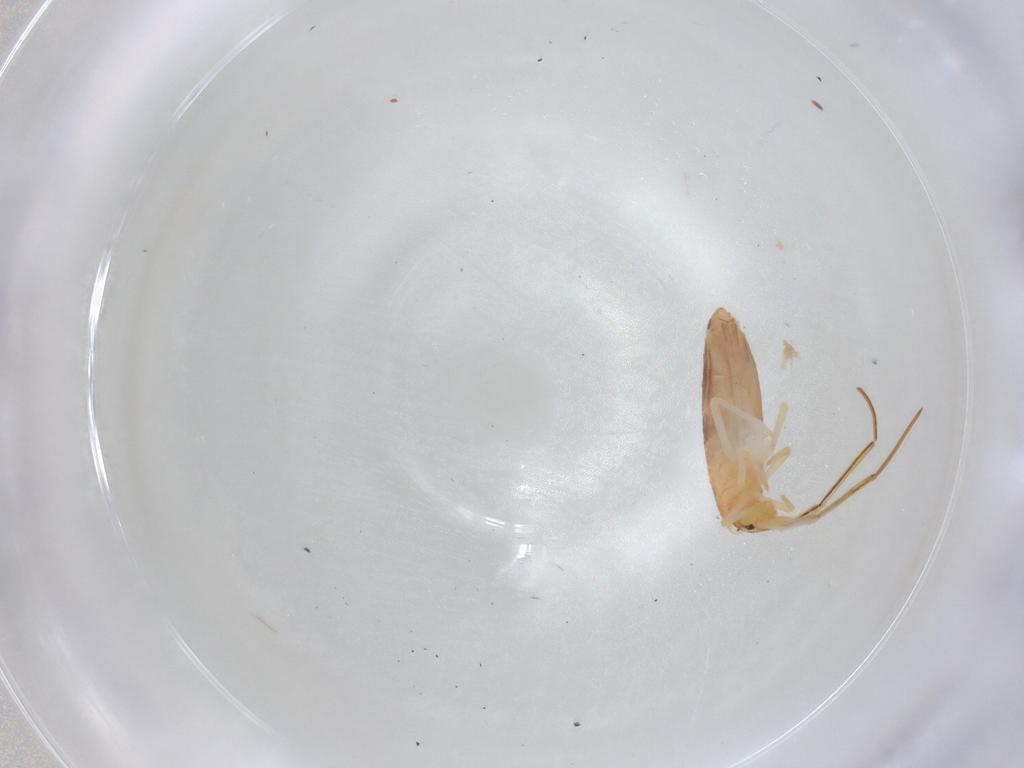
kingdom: Animalia
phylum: Arthropoda
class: Collembola
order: Entomobryomorpha
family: Entomobryidae
